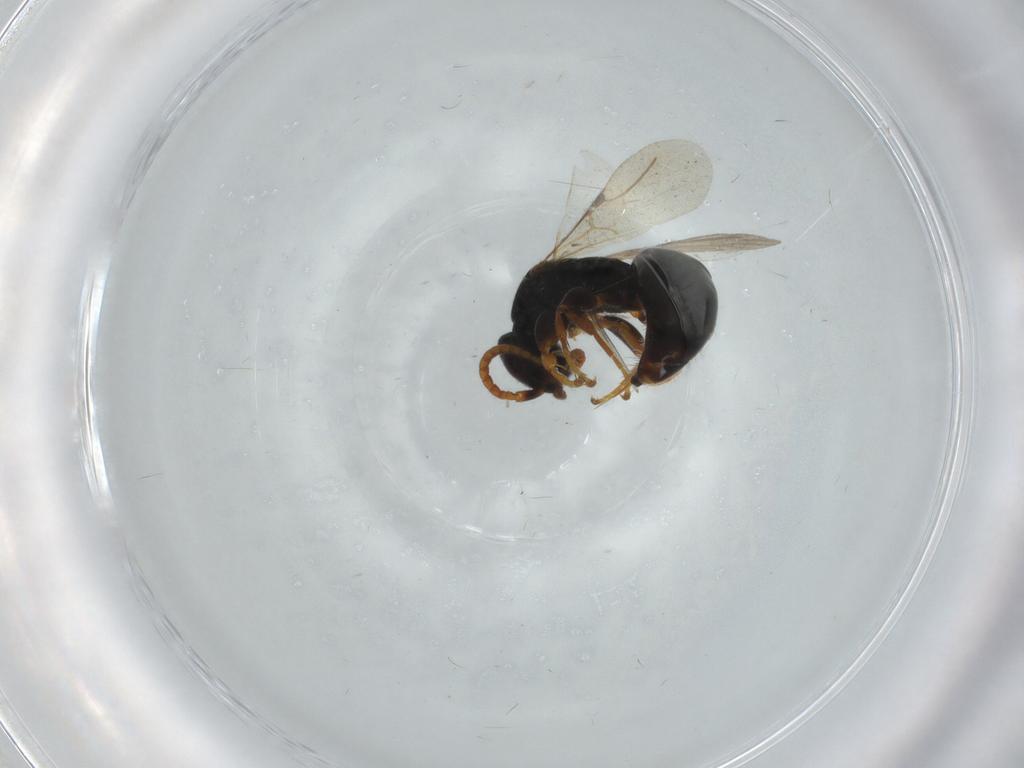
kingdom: Animalia
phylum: Arthropoda
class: Insecta
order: Hymenoptera
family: Bethylidae
